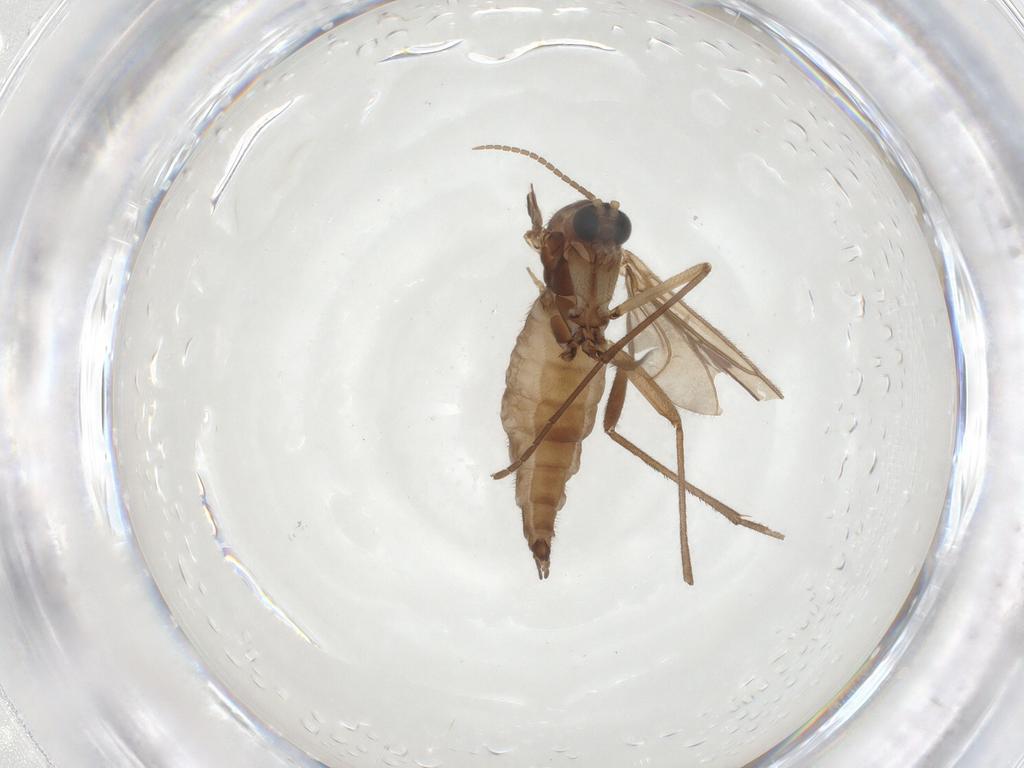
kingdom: Animalia
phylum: Arthropoda
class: Insecta
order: Diptera
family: Sciaridae
